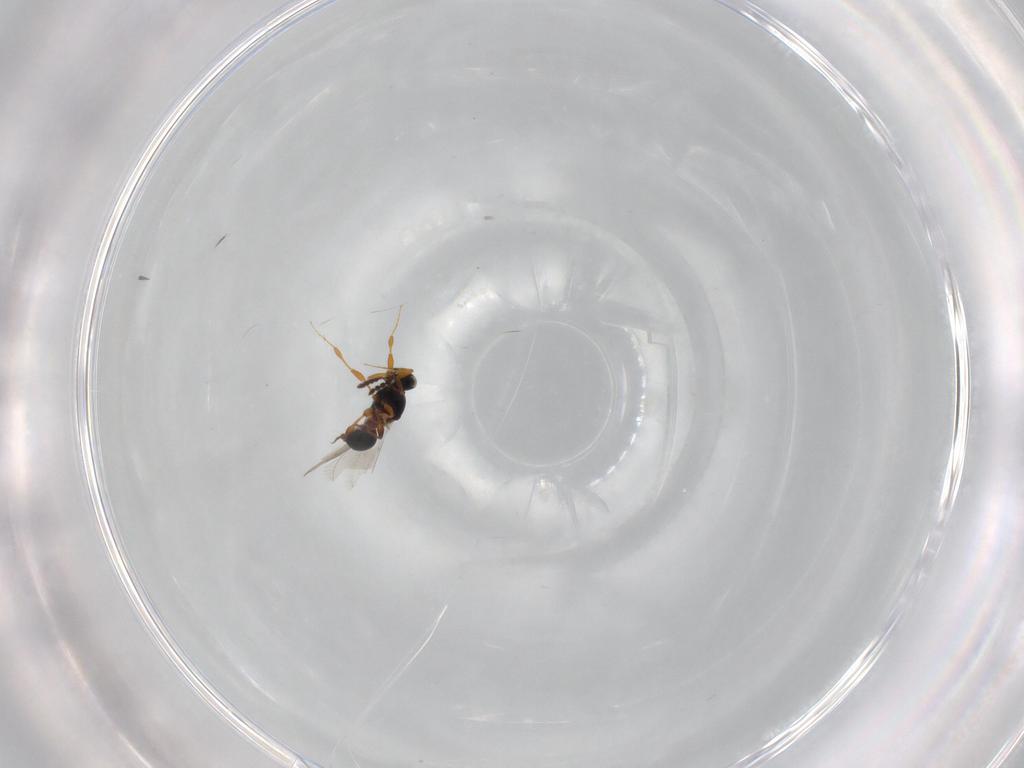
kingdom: Animalia
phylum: Arthropoda
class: Insecta
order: Hymenoptera
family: Platygastridae
